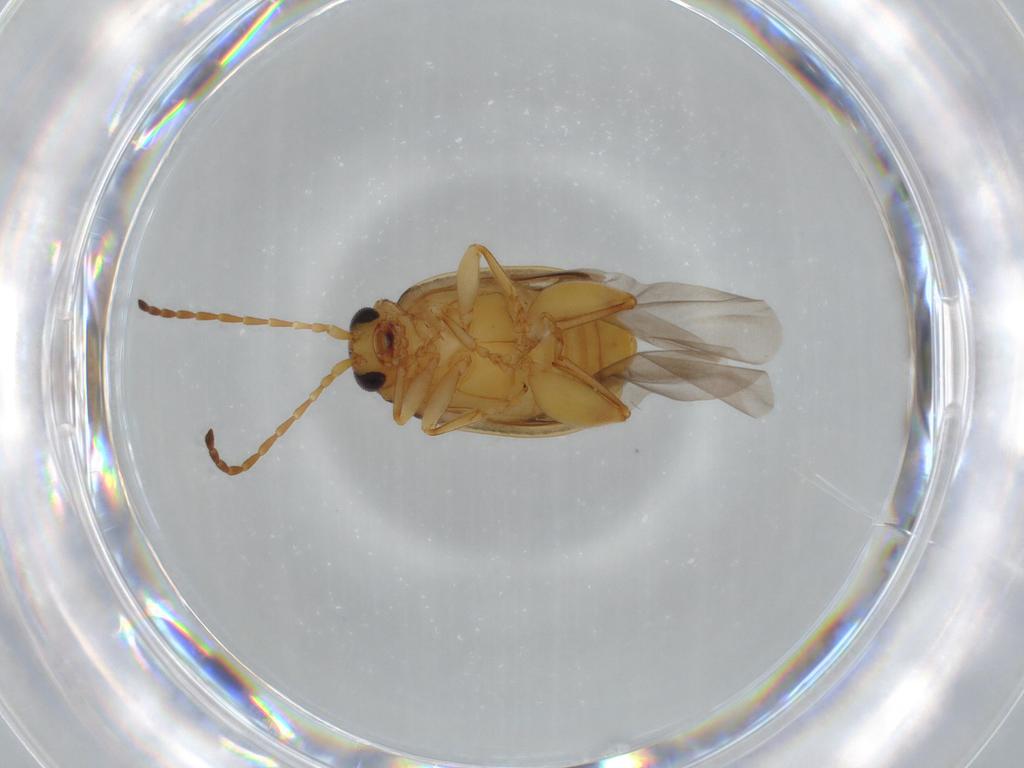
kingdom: Animalia
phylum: Arthropoda
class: Insecta
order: Coleoptera
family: Chrysomelidae
